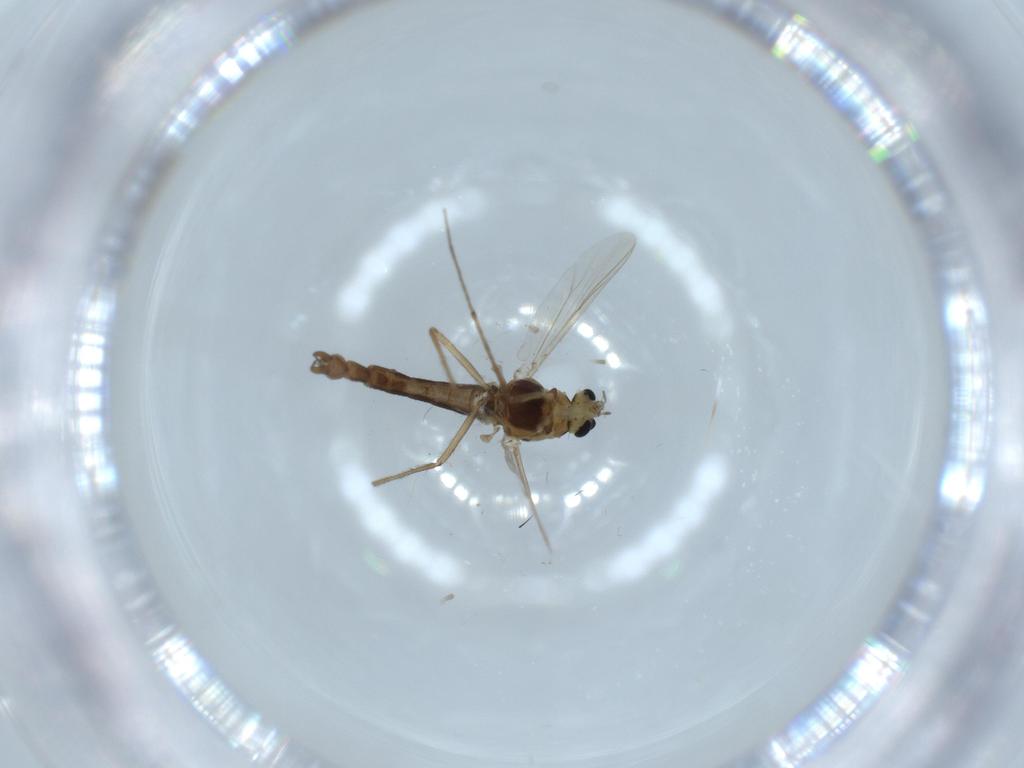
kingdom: Animalia
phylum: Arthropoda
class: Insecta
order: Diptera
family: Chironomidae
